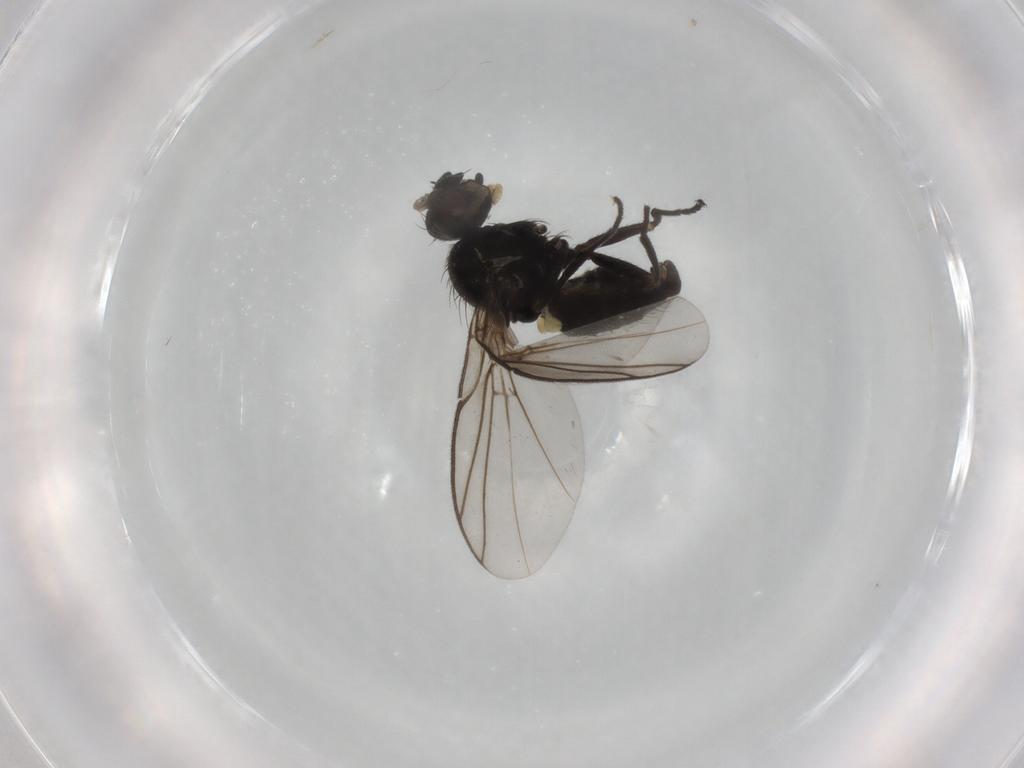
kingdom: Animalia
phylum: Arthropoda
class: Insecta
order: Diptera
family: Agromyzidae
